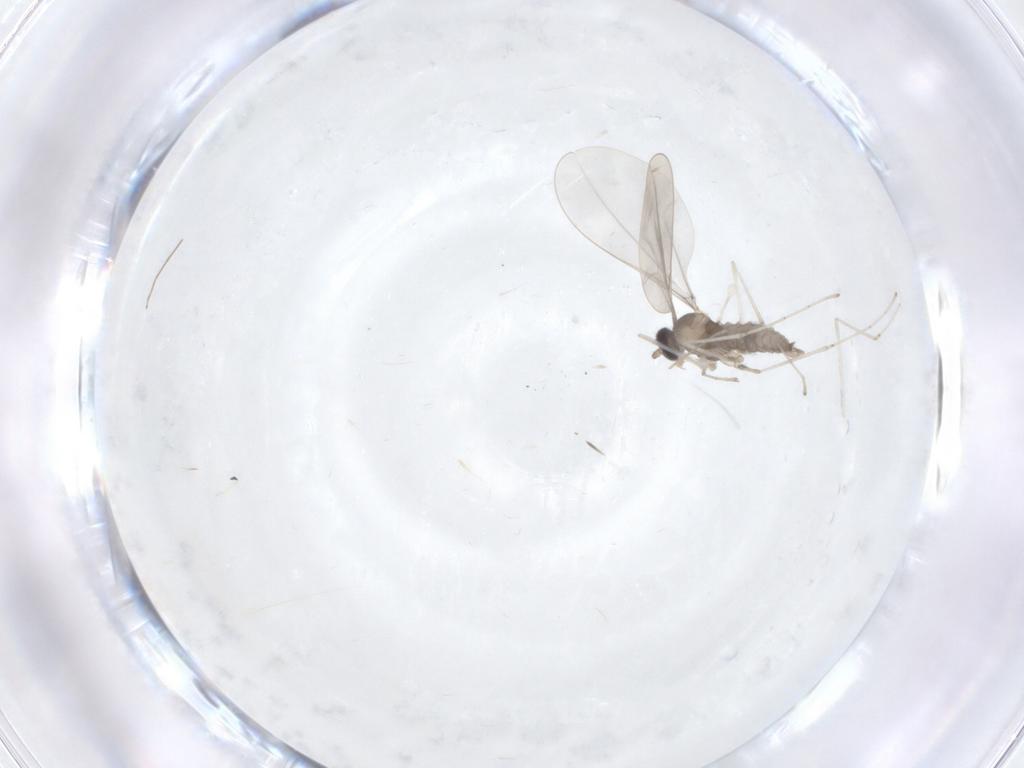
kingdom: Animalia
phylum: Arthropoda
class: Insecta
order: Diptera
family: Cecidomyiidae
